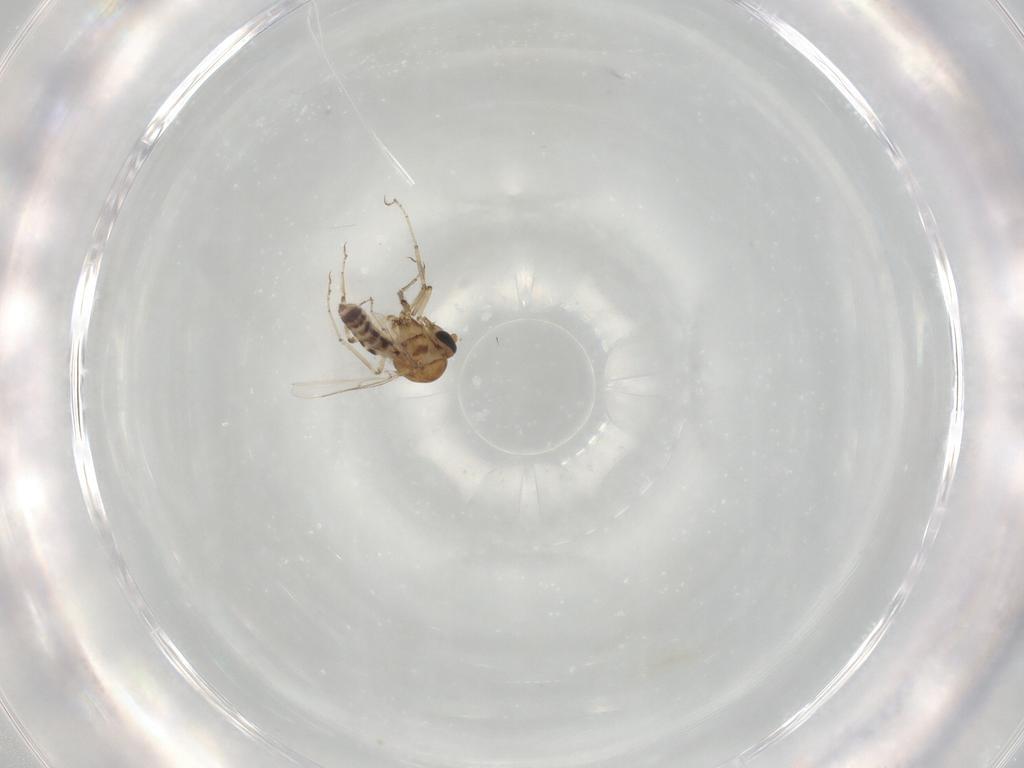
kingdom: Animalia
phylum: Arthropoda
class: Insecta
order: Diptera
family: Ceratopogonidae
